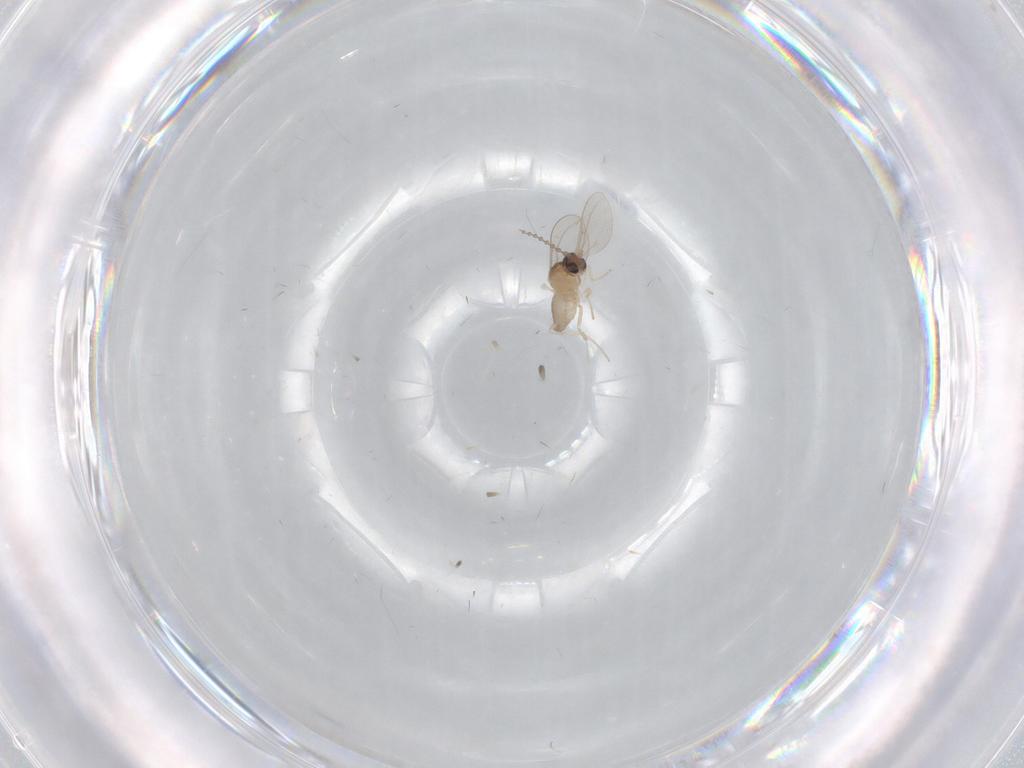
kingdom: Animalia
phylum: Arthropoda
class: Insecta
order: Diptera
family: Cecidomyiidae
